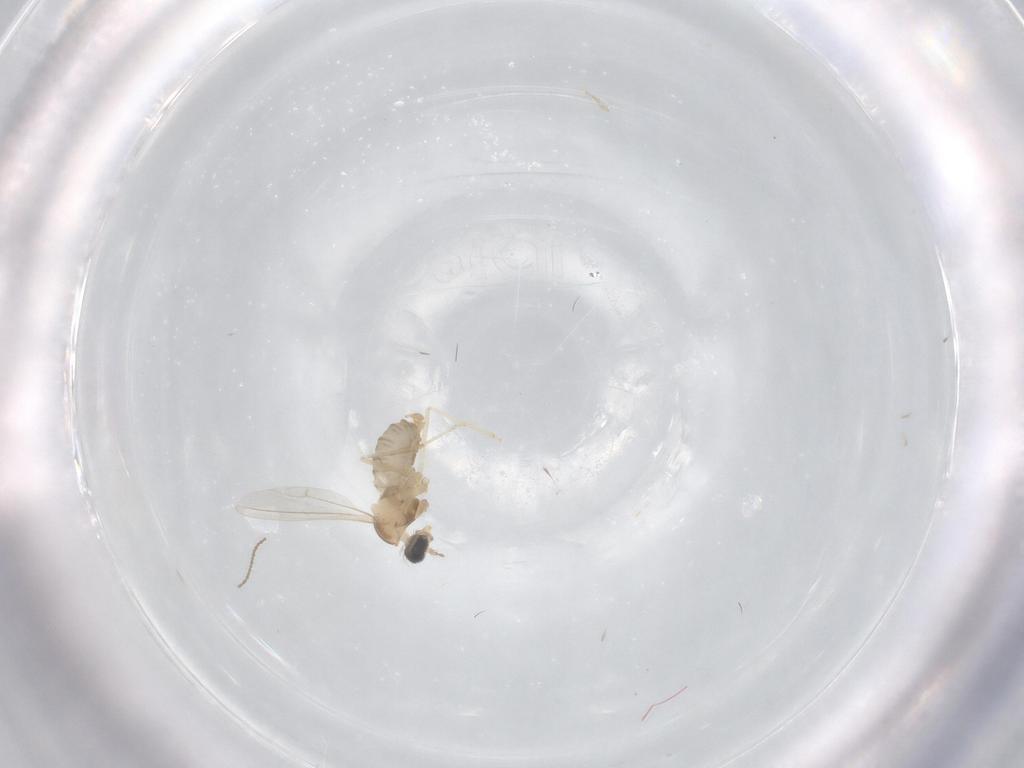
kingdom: Animalia
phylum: Arthropoda
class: Insecta
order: Diptera
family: Cecidomyiidae
